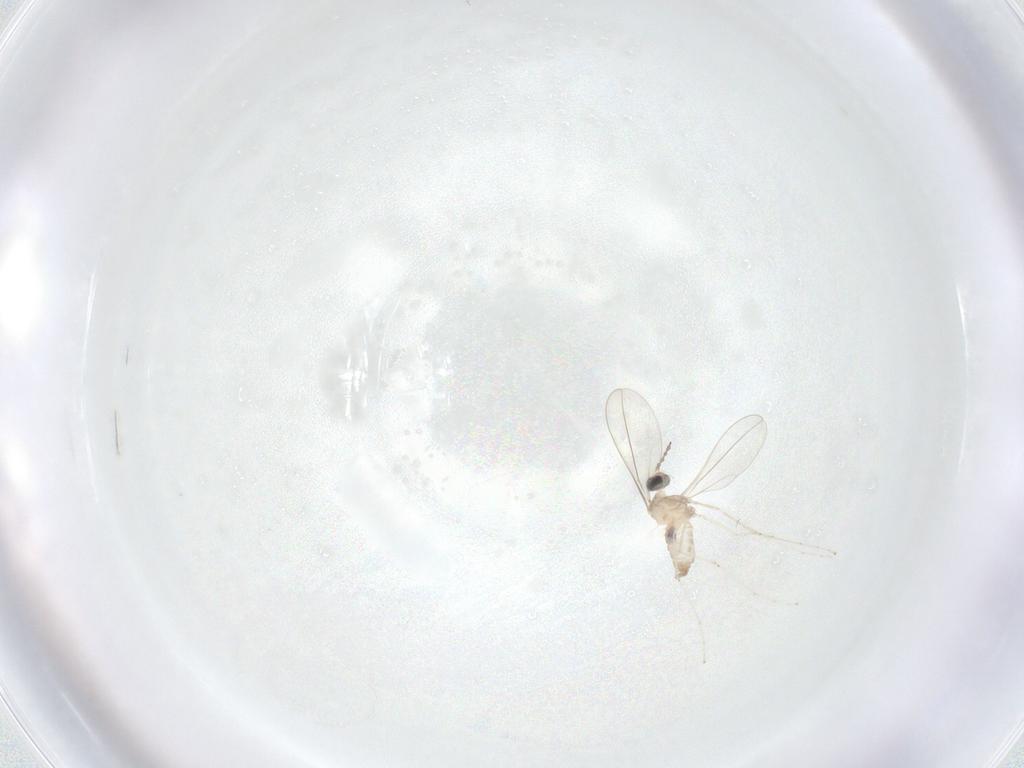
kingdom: Animalia
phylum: Arthropoda
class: Insecta
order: Diptera
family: Cecidomyiidae
